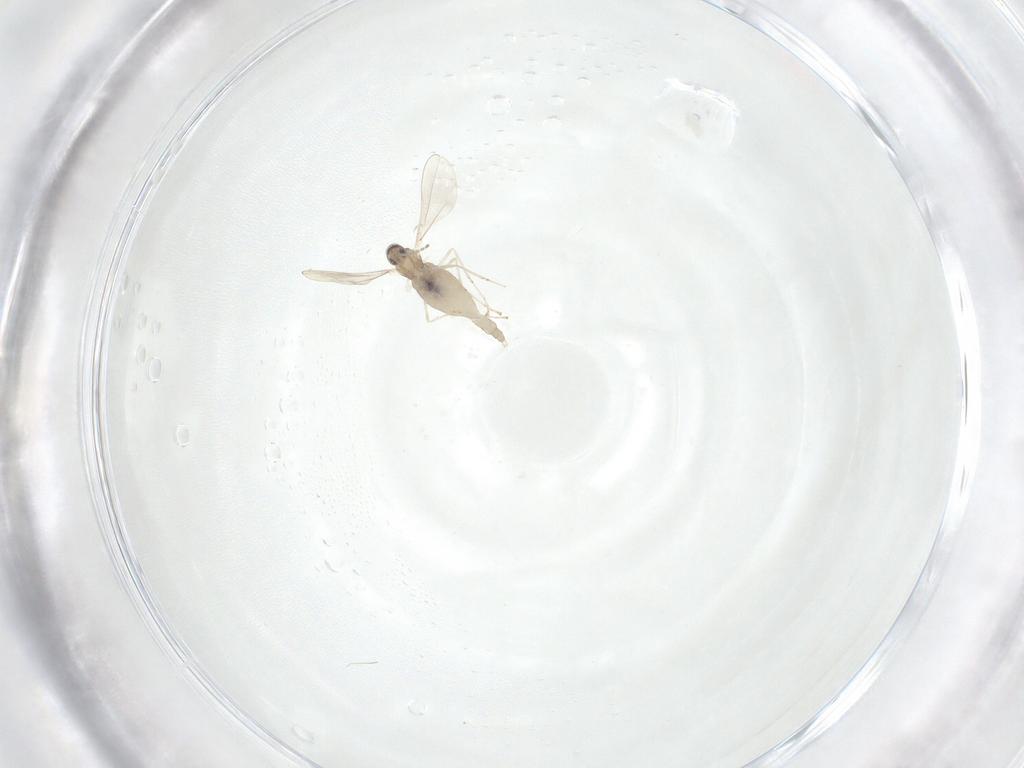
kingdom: Animalia
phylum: Arthropoda
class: Insecta
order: Diptera
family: Cecidomyiidae
